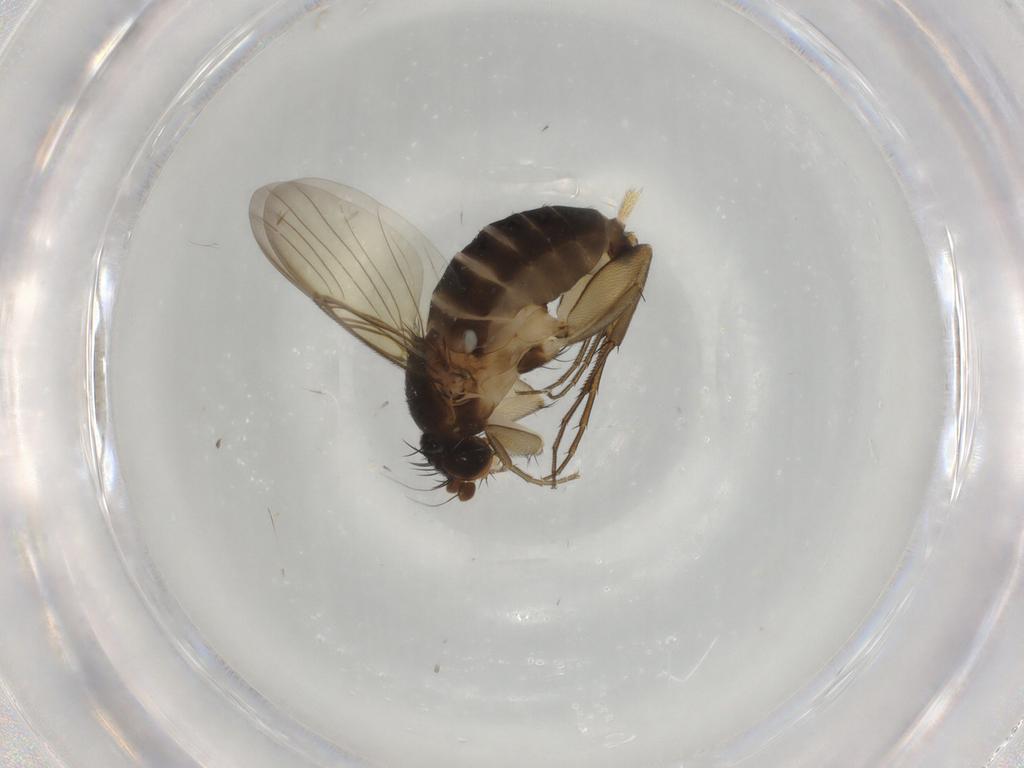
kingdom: Animalia
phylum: Arthropoda
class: Insecta
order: Diptera
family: Phoridae
